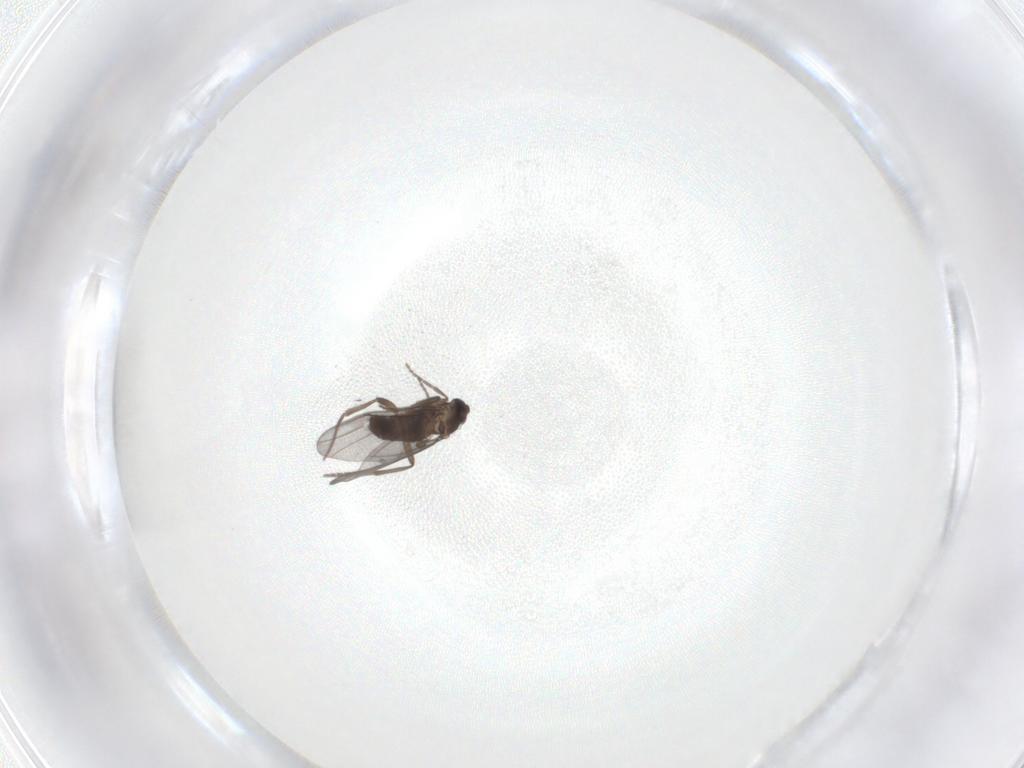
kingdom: Animalia
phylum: Arthropoda
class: Insecta
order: Diptera
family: Phoridae
